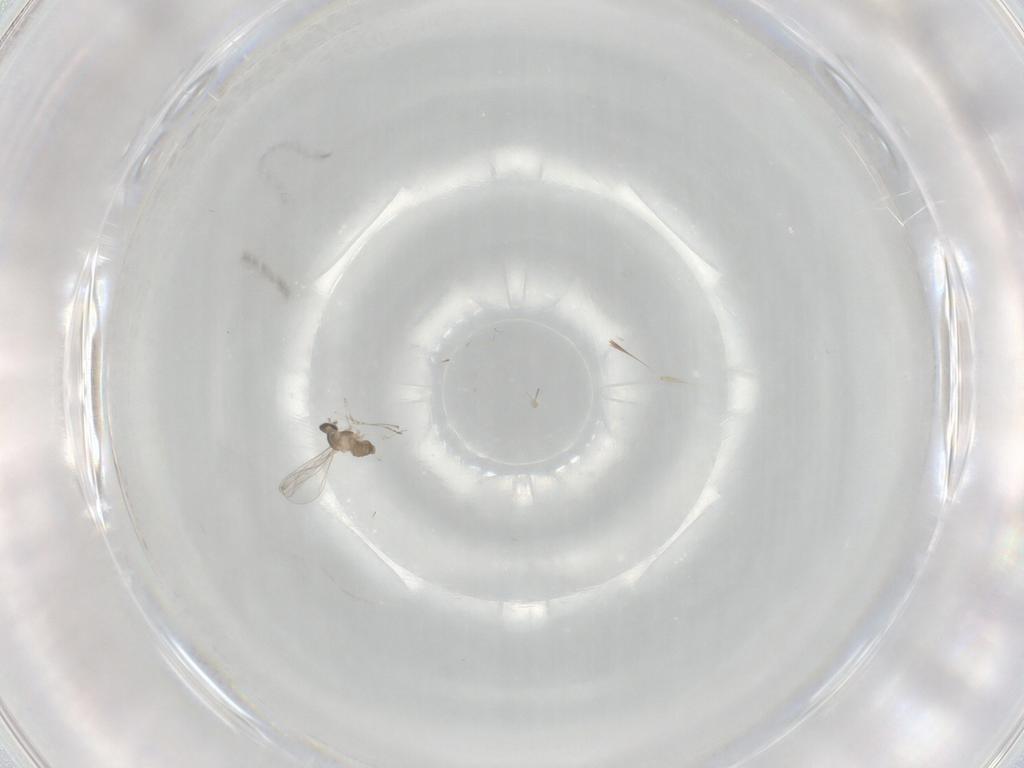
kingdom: Animalia
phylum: Arthropoda
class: Insecta
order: Diptera
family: Cecidomyiidae
